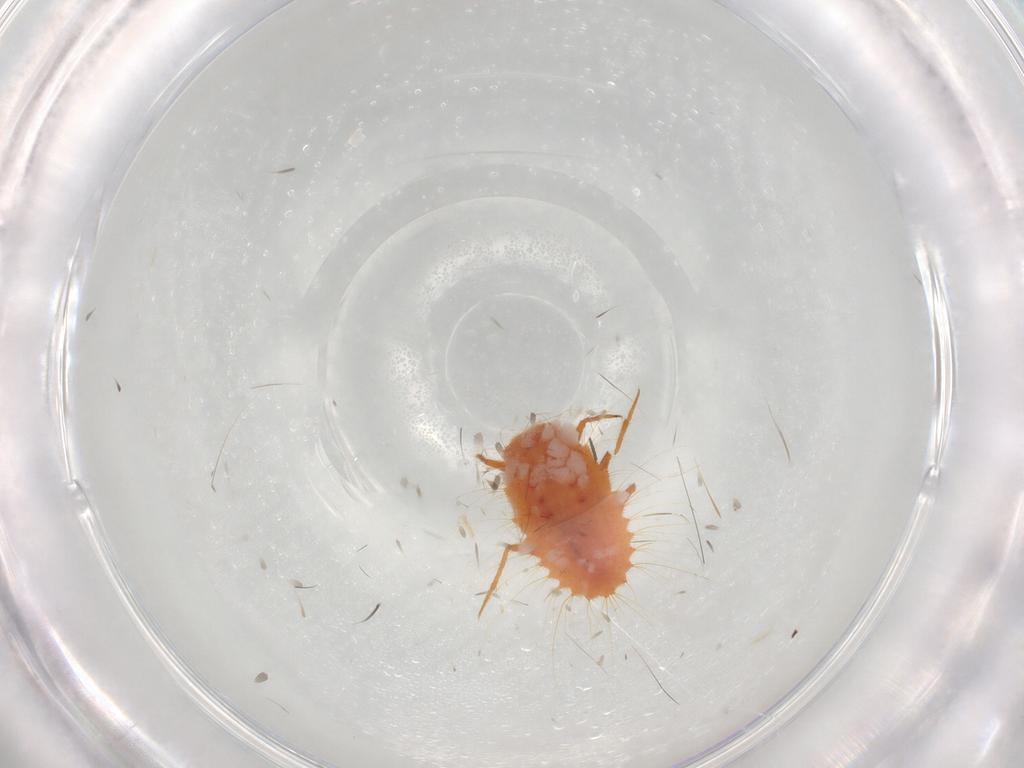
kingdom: Animalia
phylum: Arthropoda
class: Insecta
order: Hemiptera
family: Coccoidea_incertae_sedis
